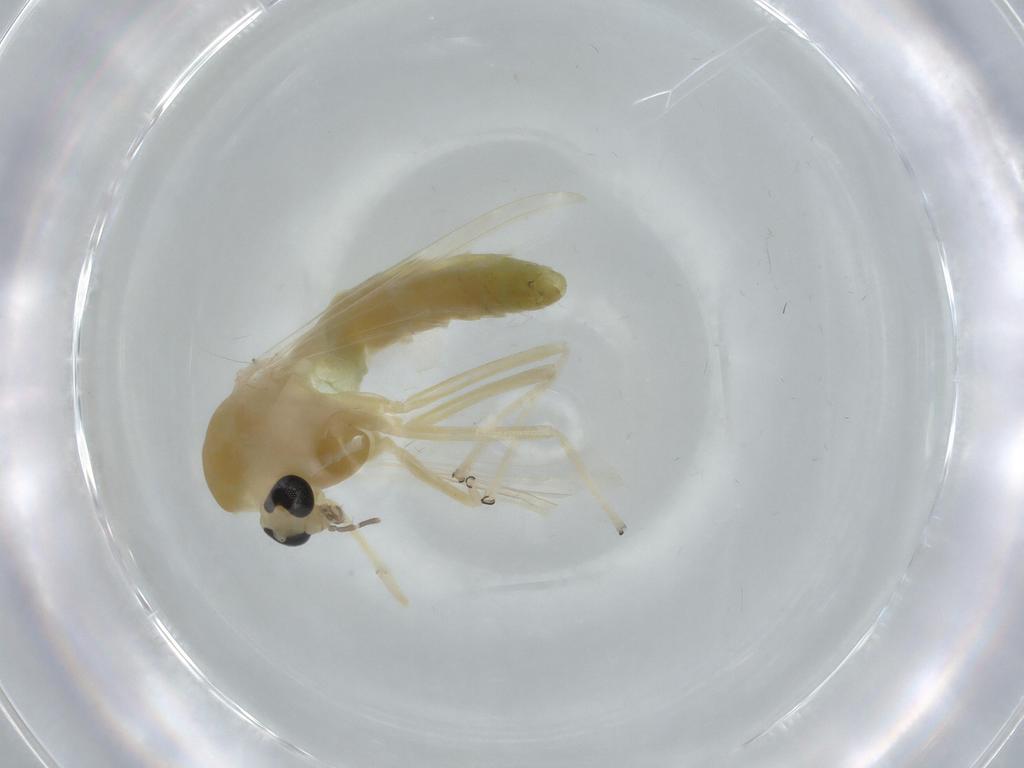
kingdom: Animalia
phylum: Arthropoda
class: Insecta
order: Diptera
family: Chironomidae
